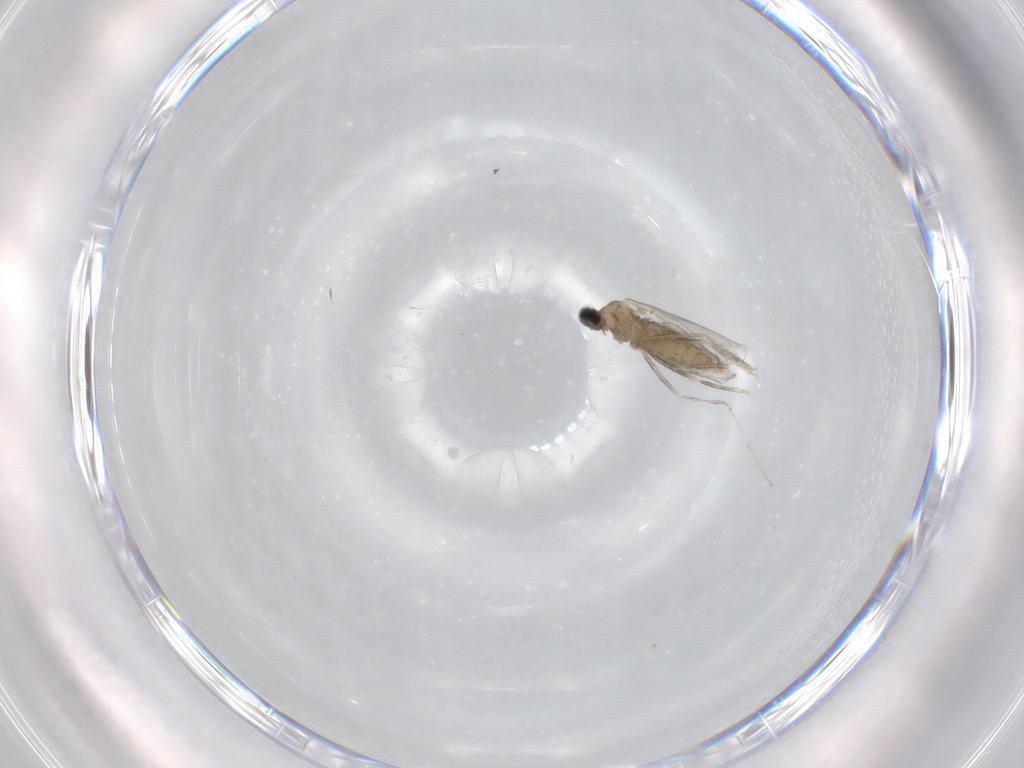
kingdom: Animalia
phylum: Arthropoda
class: Insecta
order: Diptera
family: Cecidomyiidae
